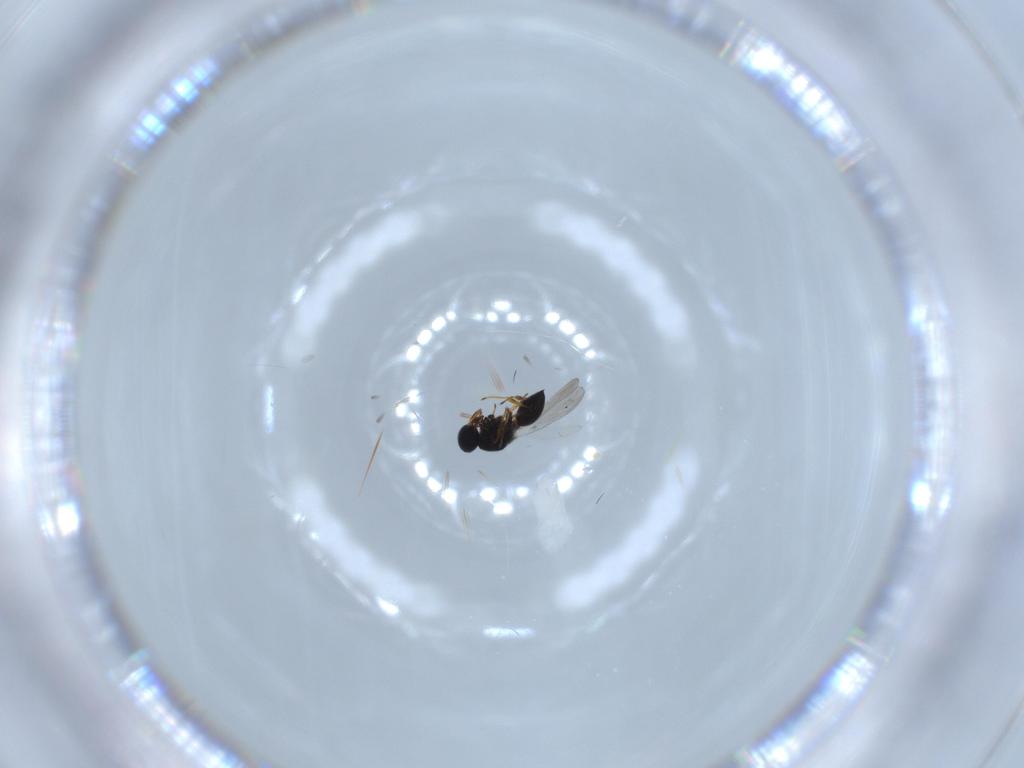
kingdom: Animalia
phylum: Arthropoda
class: Insecta
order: Hymenoptera
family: Platygastridae
